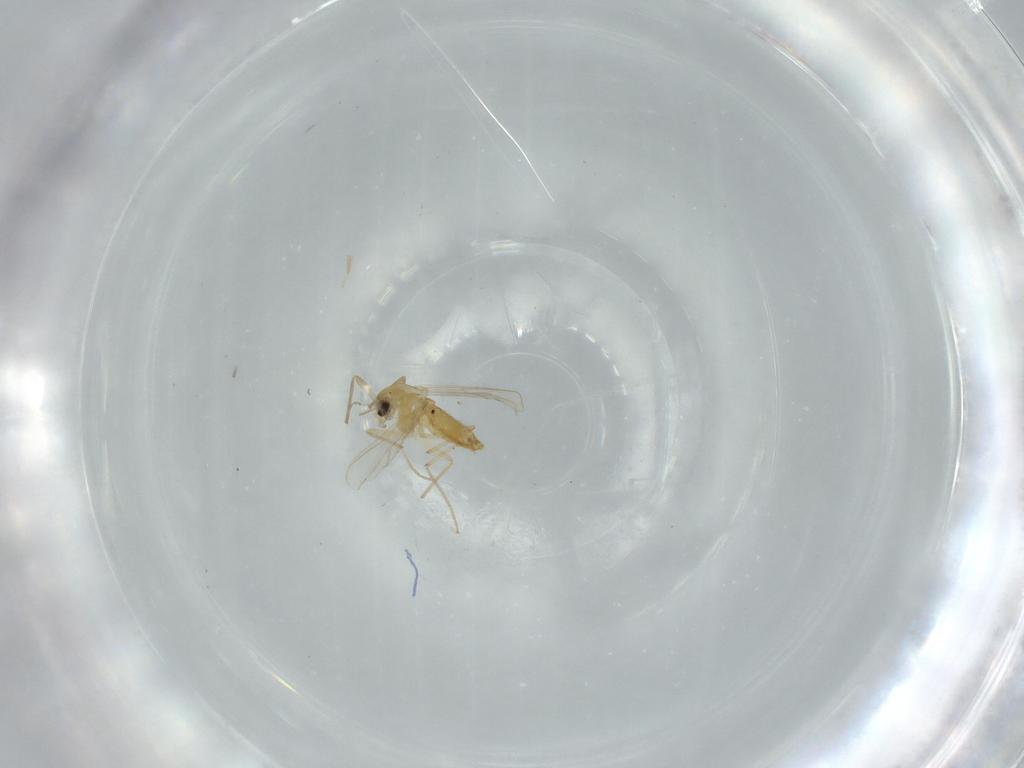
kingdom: Animalia
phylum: Arthropoda
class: Insecta
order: Diptera
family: Chironomidae
